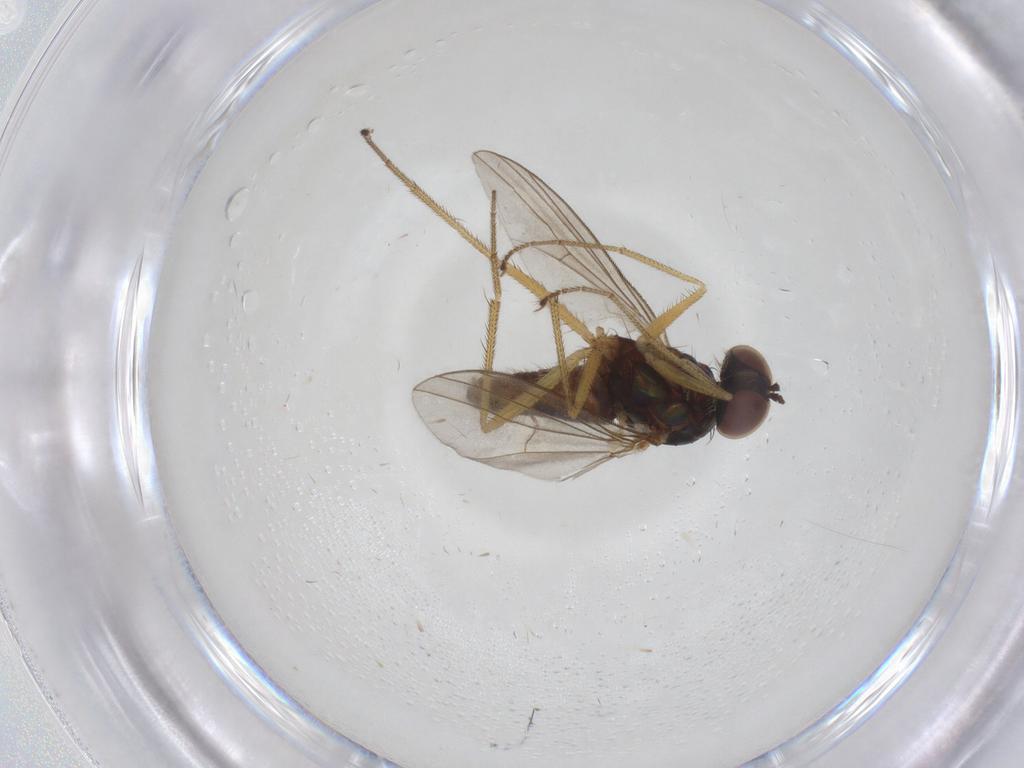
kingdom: Animalia
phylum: Arthropoda
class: Insecta
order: Diptera
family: Dolichopodidae
